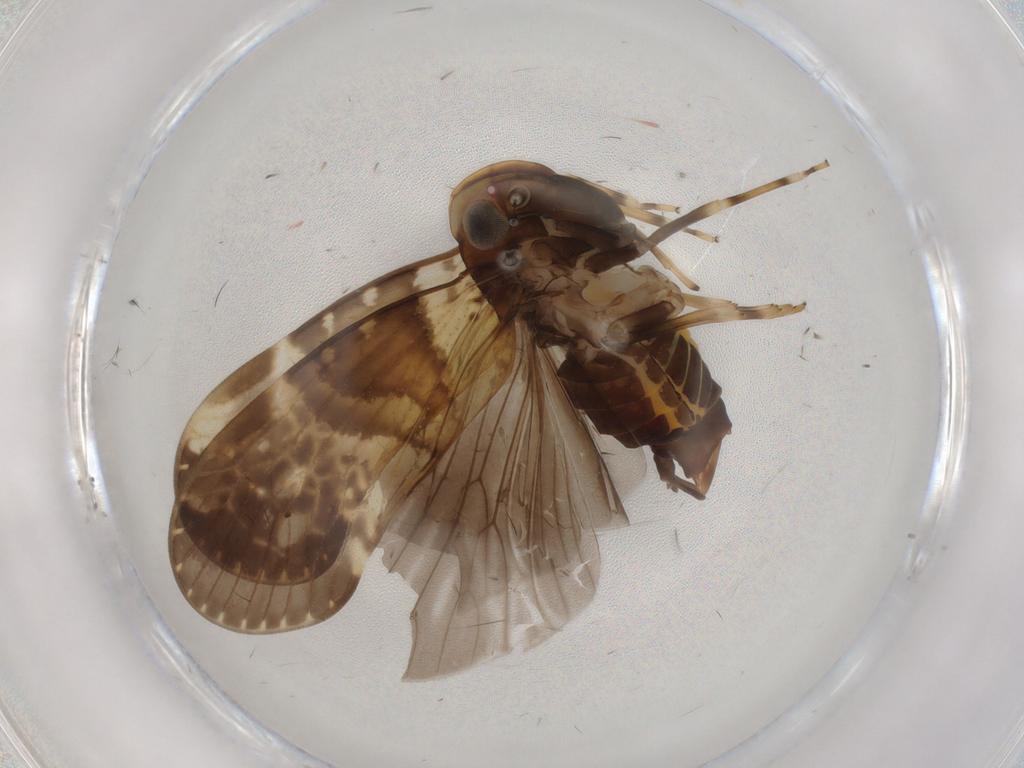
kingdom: Animalia
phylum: Arthropoda
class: Insecta
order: Hemiptera
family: Cixiidae
